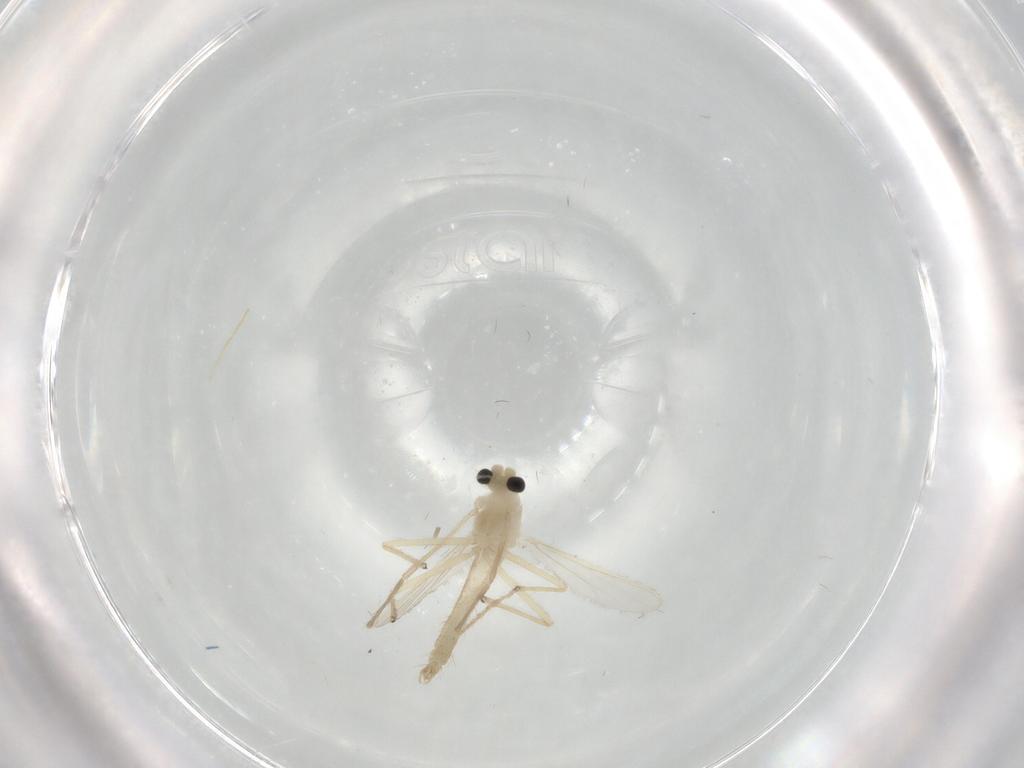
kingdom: Animalia
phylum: Arthropoda
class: Insecta
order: Diptera
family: Chironomidae
